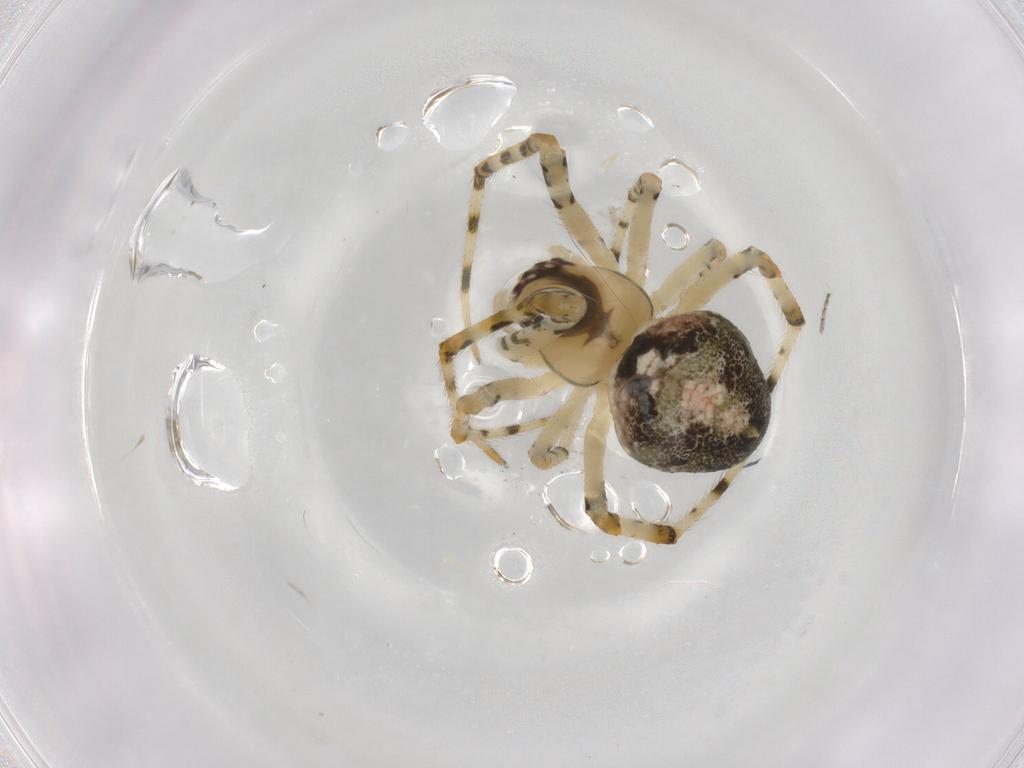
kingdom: Animalia
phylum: Arthropoda
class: Arachnida
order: Araneae
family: Theridiidae
